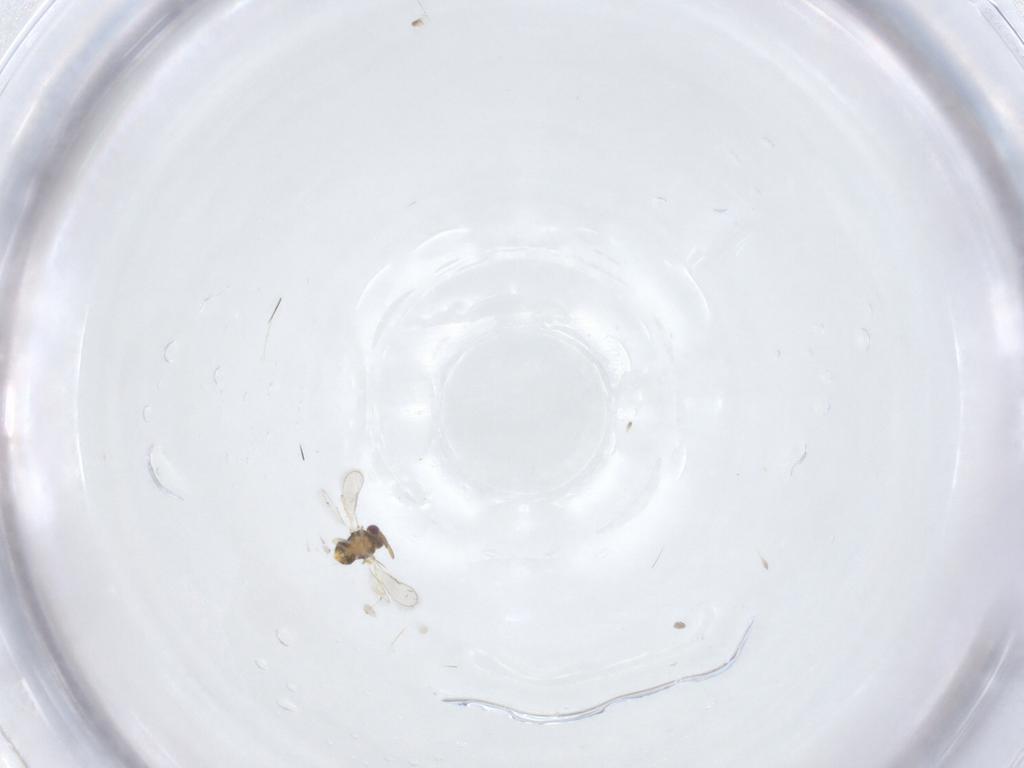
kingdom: Animalia
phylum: Arthropoda
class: Insecta
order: Hymenoptera
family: Aphelinidae
